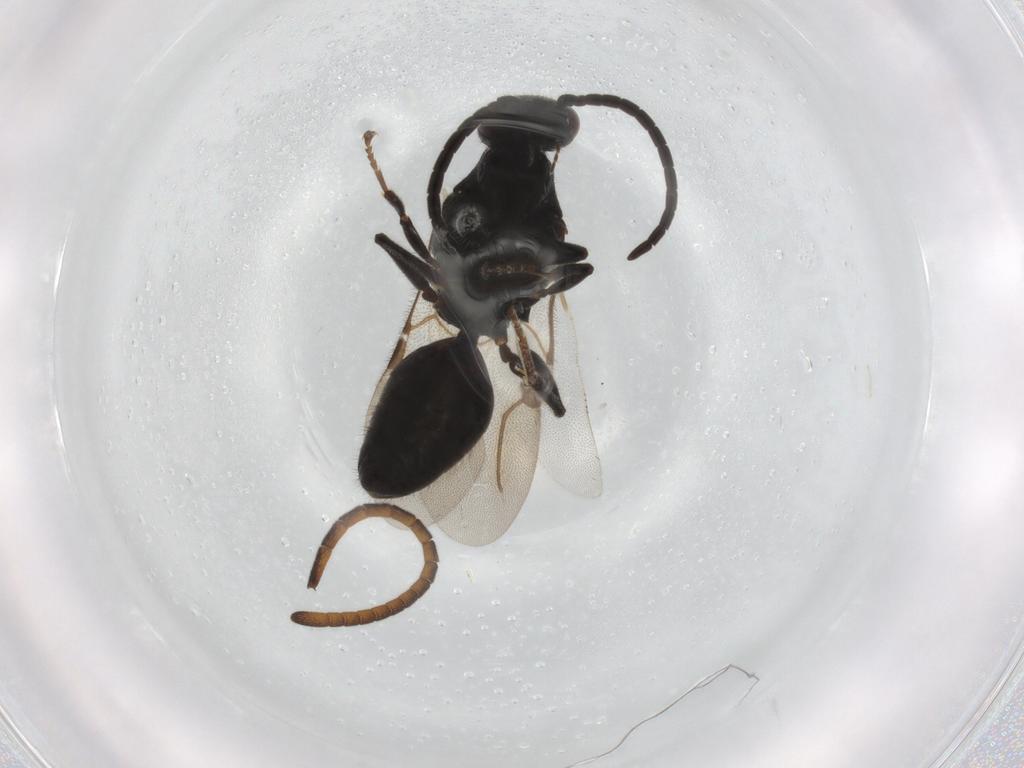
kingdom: Animalia
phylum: Arthropoda
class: Insecta
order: Hymenoptera
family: Bethylidae
